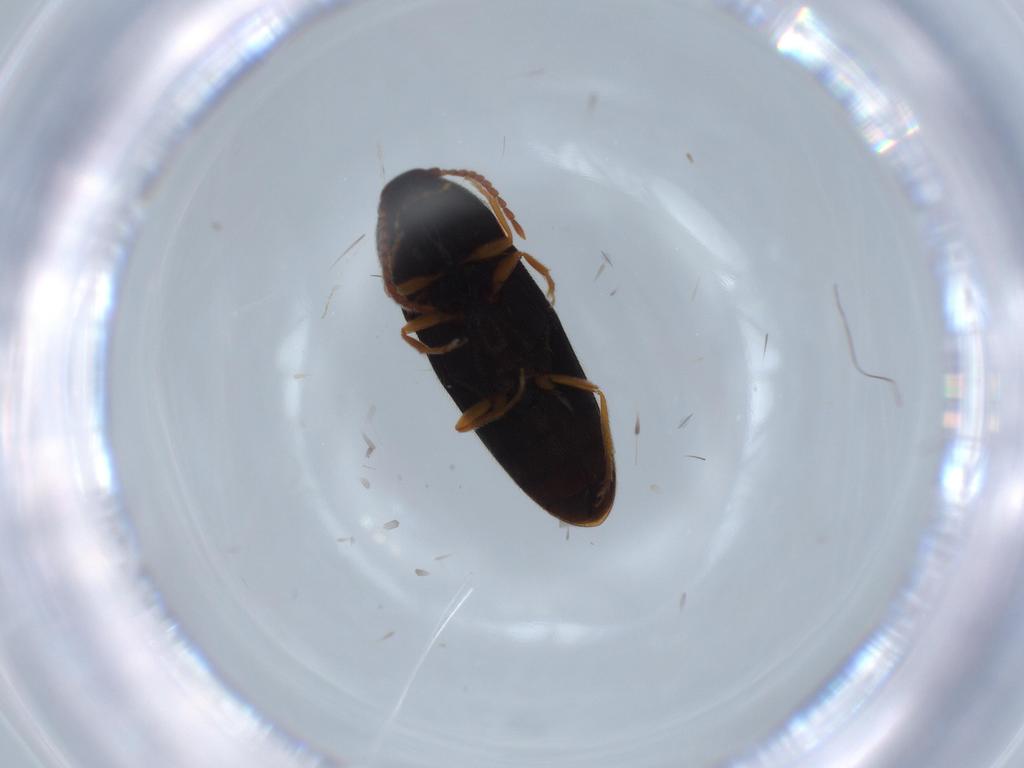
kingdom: Animalia
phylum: Arthropoda
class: Insecta
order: Coleoptera
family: Elateridae
